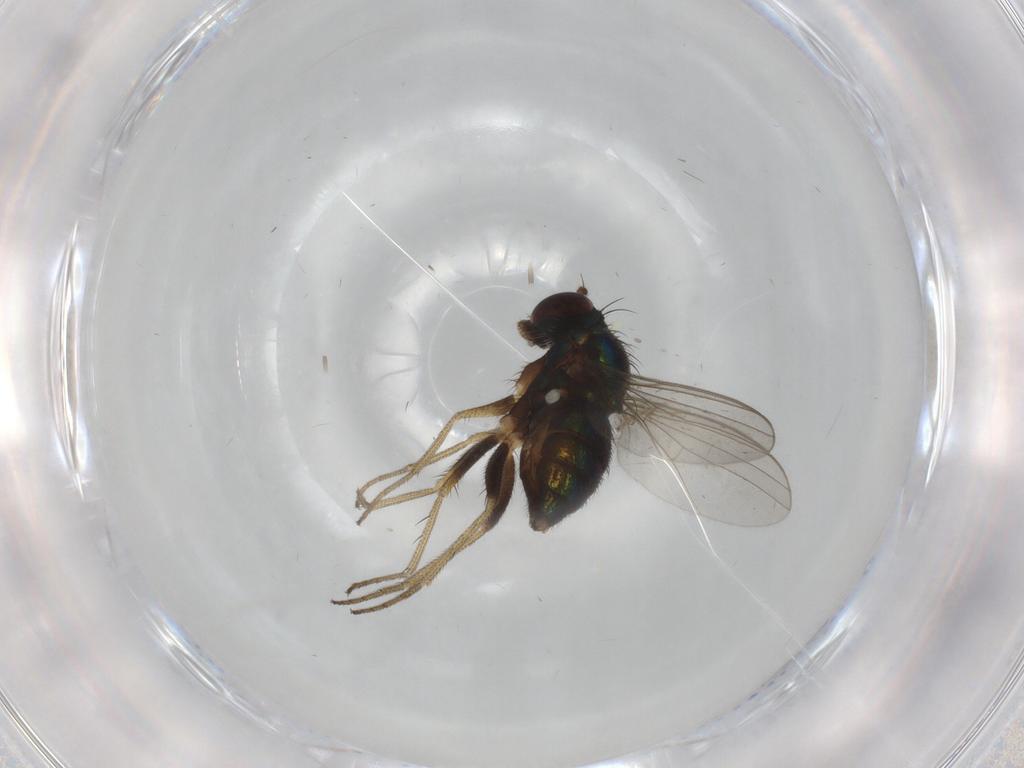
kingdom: Animalia
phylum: Arthropoda
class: Insecta
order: Diptera
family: Dolichopodidae
